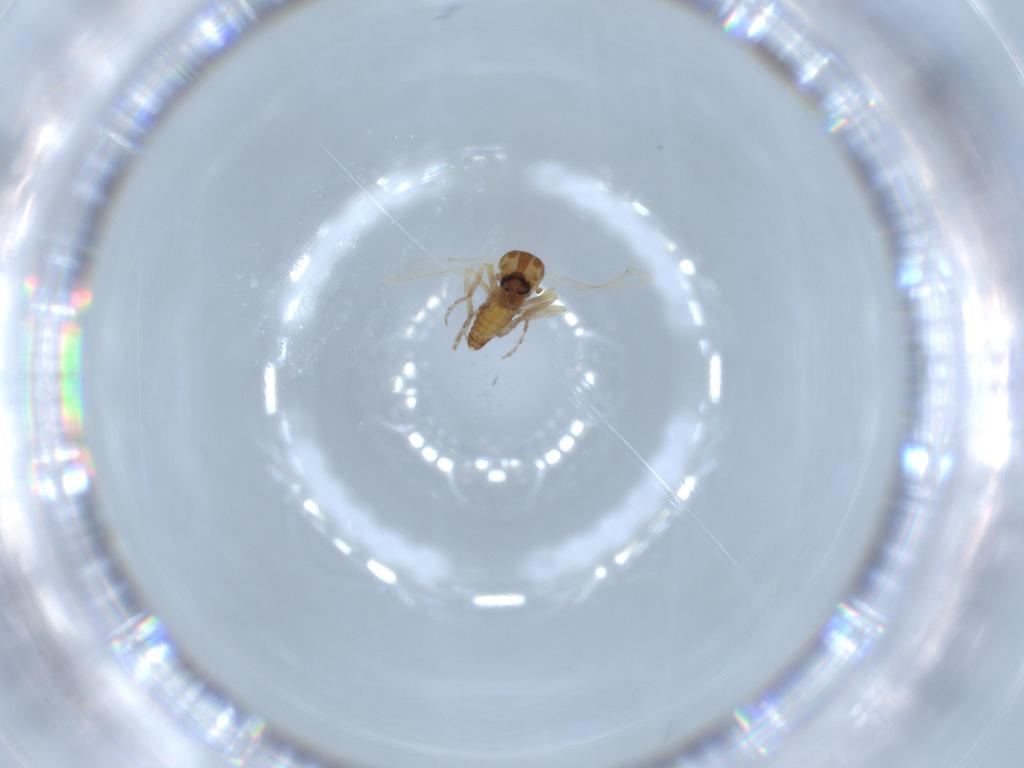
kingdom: Animalia
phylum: Arthropoda
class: Insecta
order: Diptera
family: Ceratopogonidae
